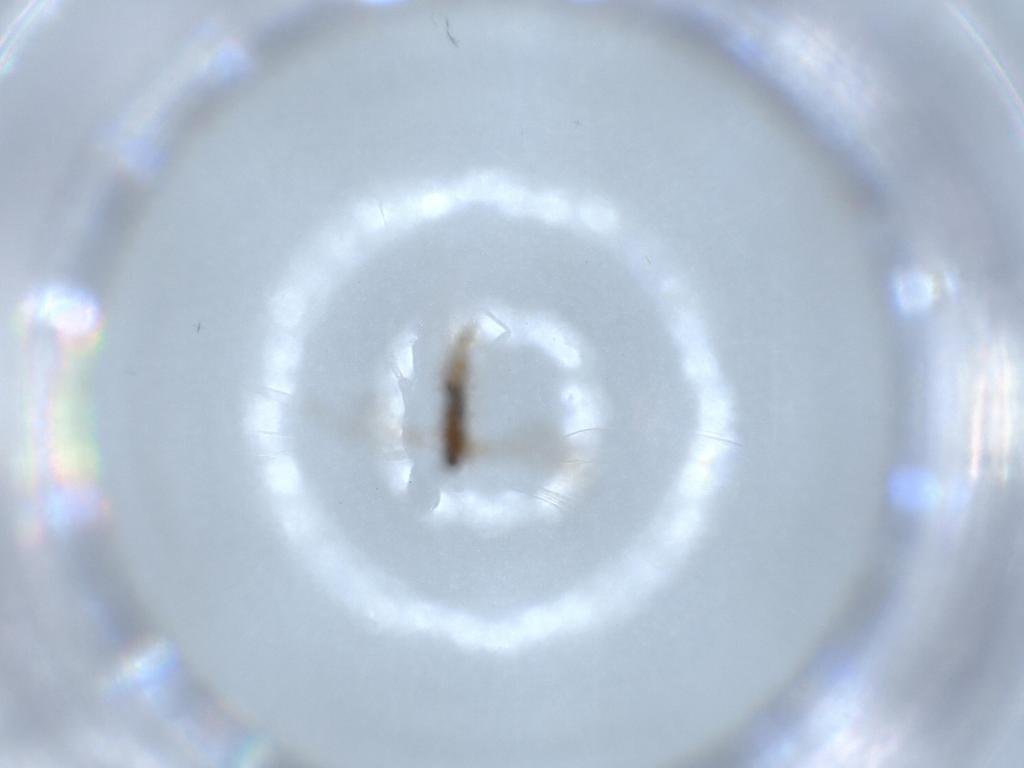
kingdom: Animalia
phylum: Arthropoda
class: Insecta
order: Diptera
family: Cecidomyiidae
